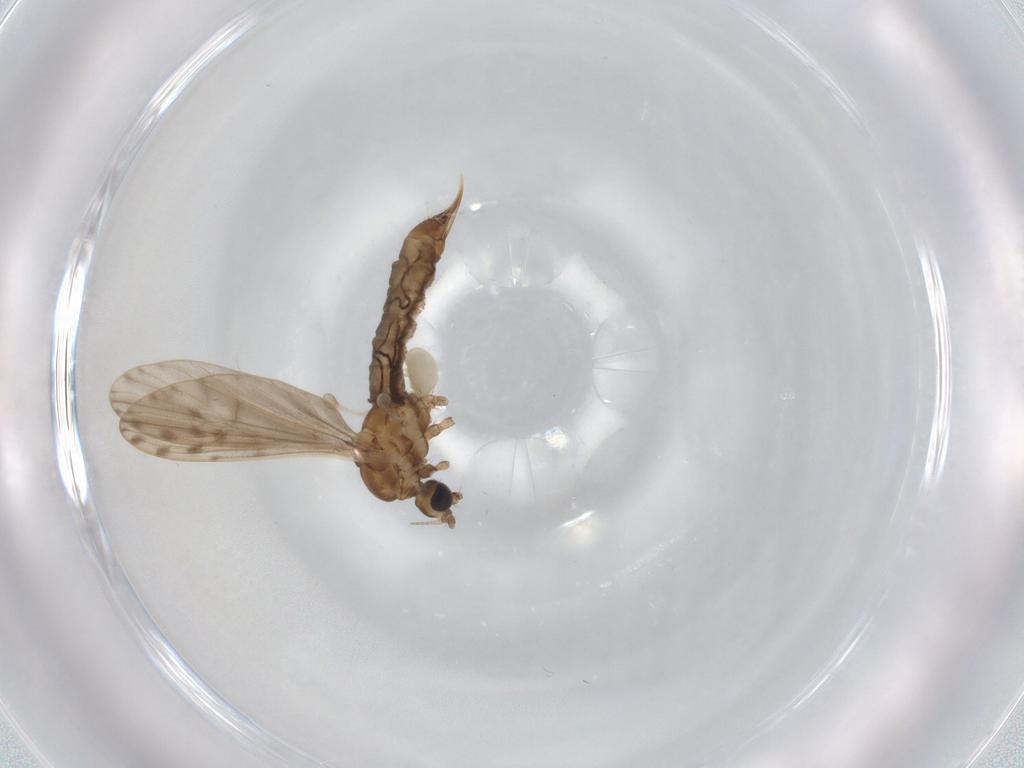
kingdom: Animalia
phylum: Arthropoda
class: Insecta
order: Diptera
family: Limoniidae
